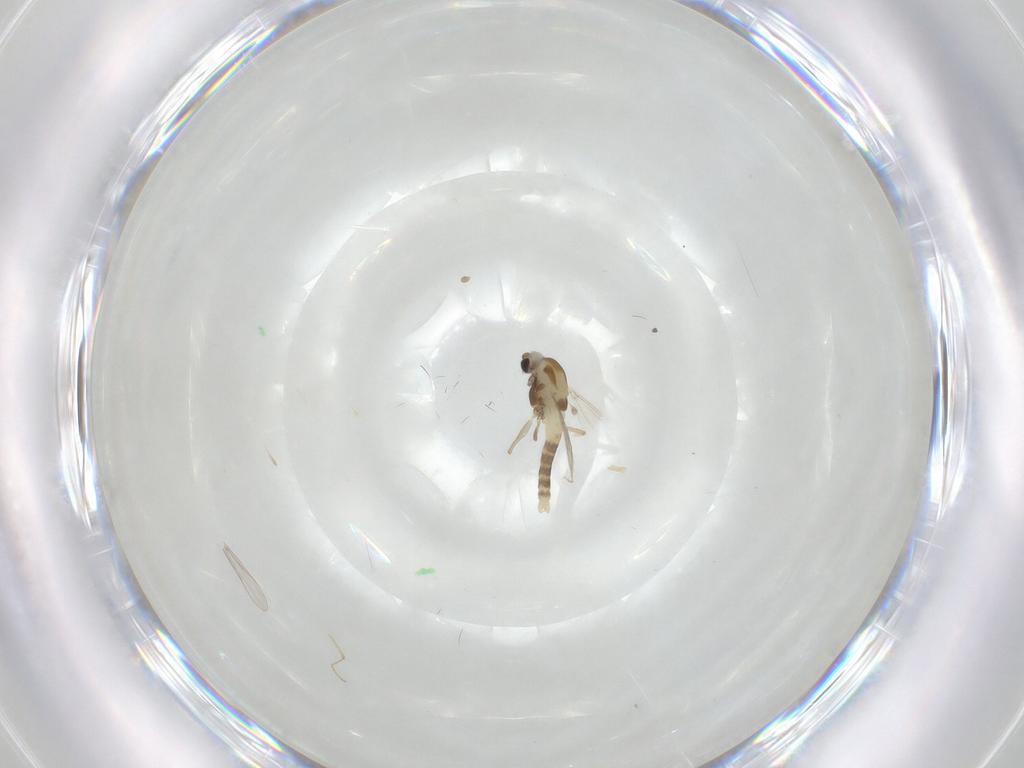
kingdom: Animalia
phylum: Arthropoda
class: Insecta
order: Diptera
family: Chironomidae
